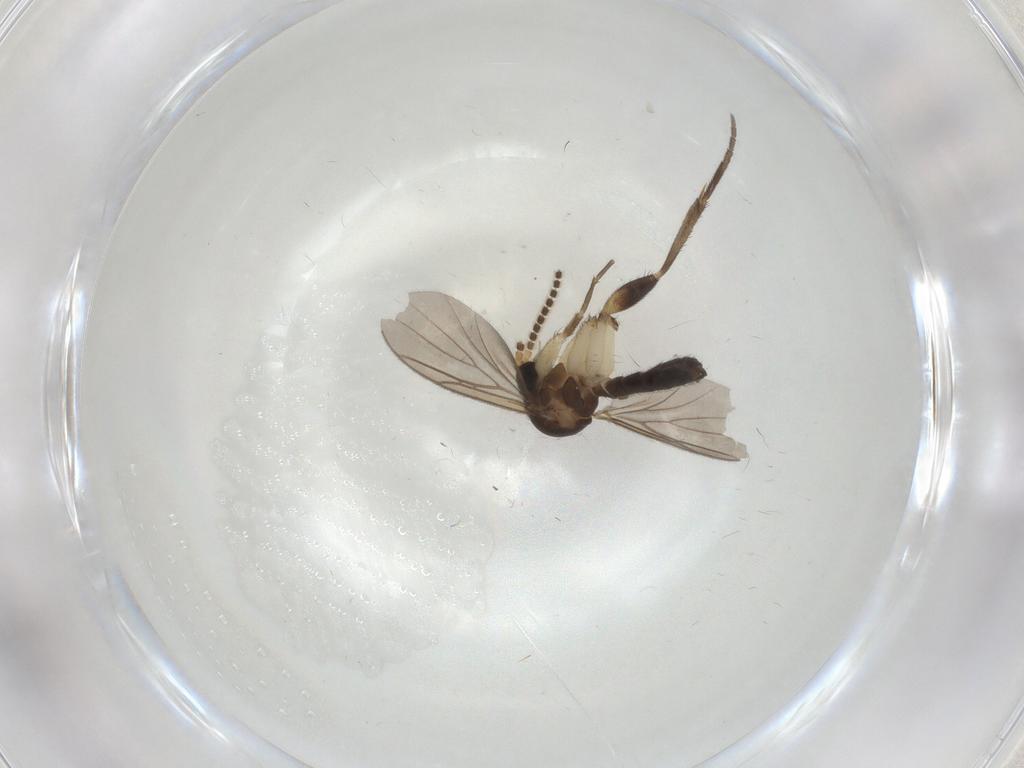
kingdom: Animalia
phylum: Arthropoda
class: Insecta
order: Diptera
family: Mycetophilidae
